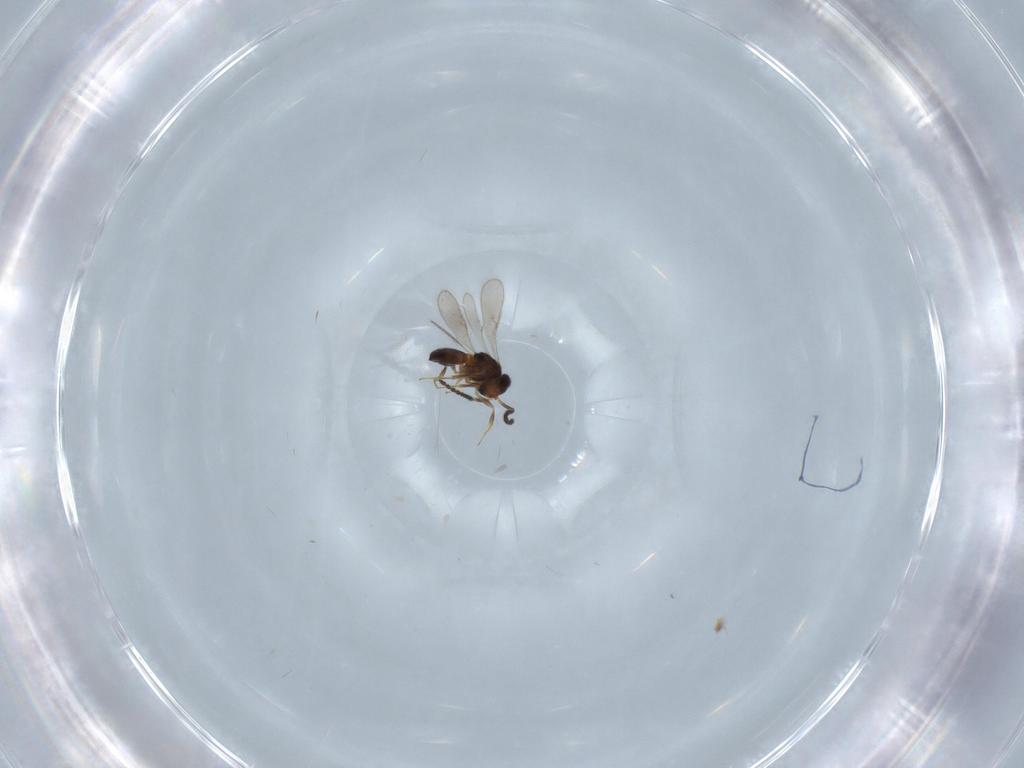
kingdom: Animalia
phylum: Arthropoda
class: Insecta
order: Hymenoptera
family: Scelionidae
